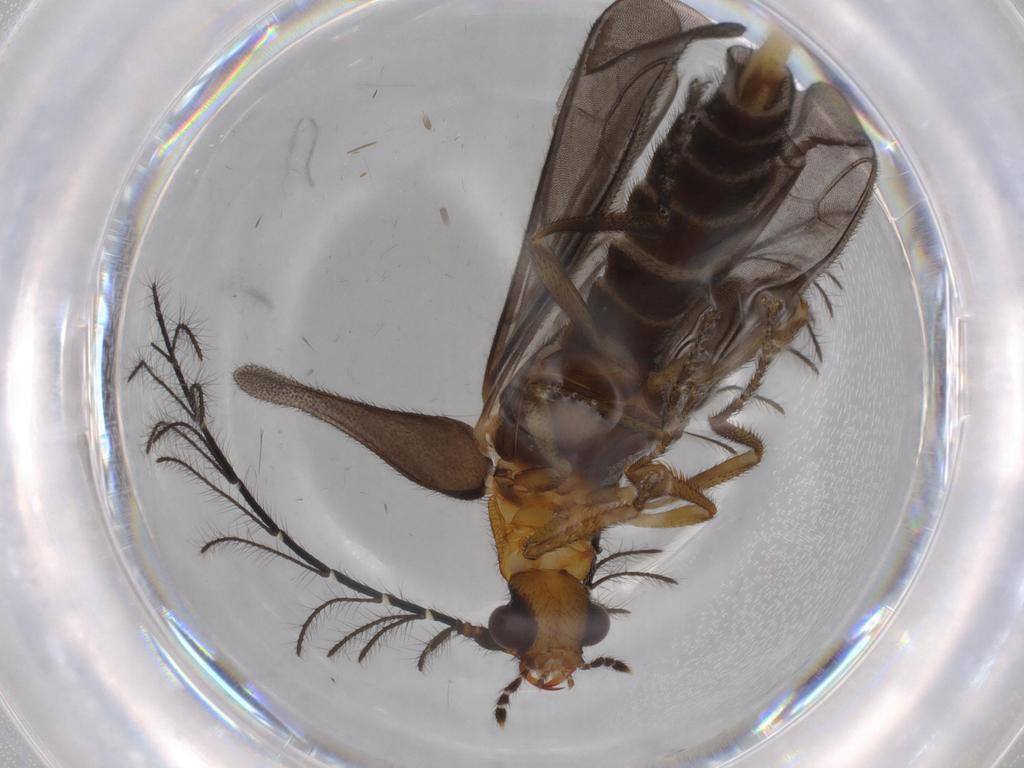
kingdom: Animalia
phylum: Arthropoda
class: Insecta
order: Coleoptera
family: Phengodidae
